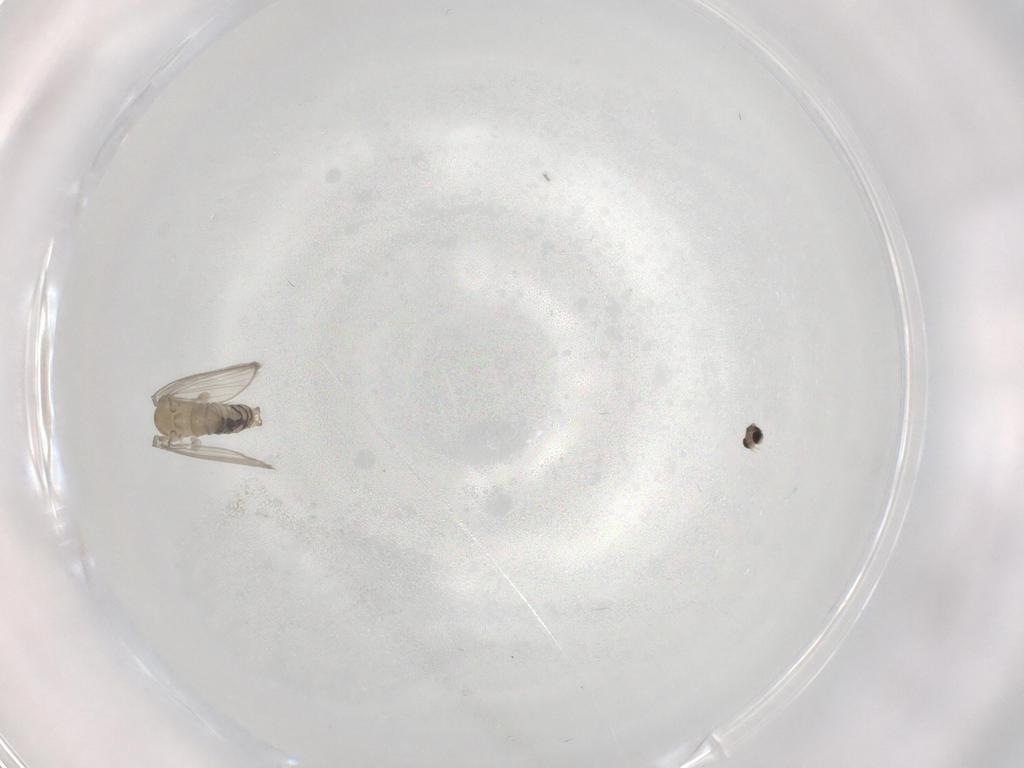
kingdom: Animalia
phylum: Arthropoda
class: Insecta
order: Diptera
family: Psychodidae
